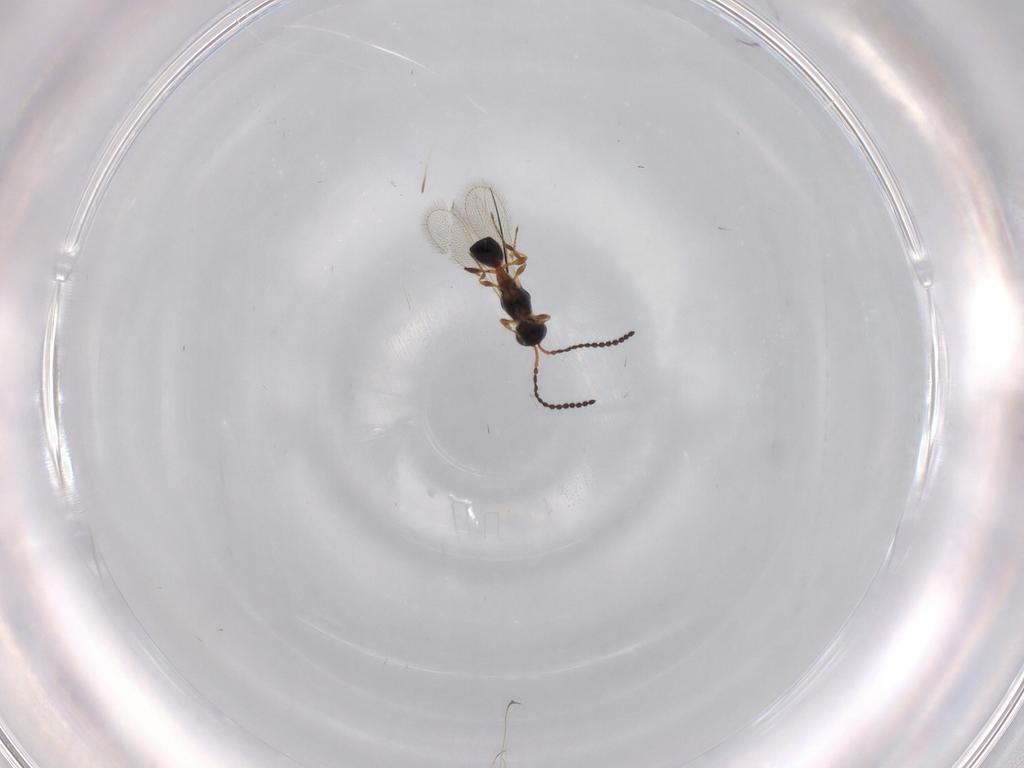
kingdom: Animalia
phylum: Arthropoda
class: Insecta
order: Hymenoptera
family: Diapriidae
